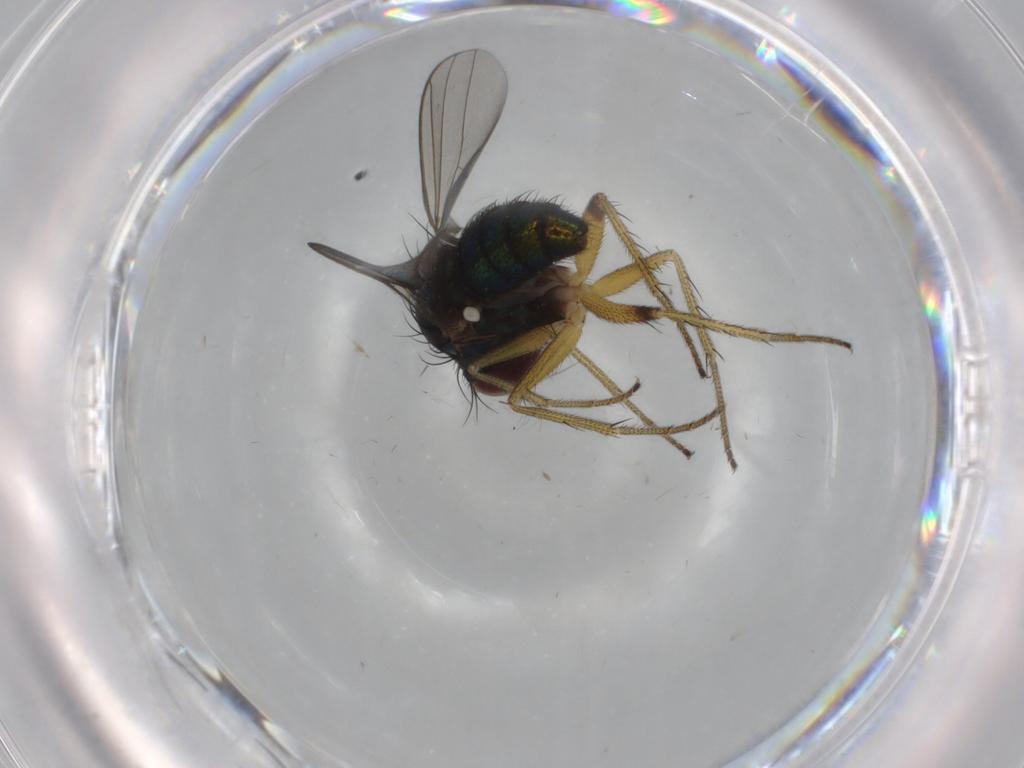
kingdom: Animalia
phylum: Arthropoda
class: Insecta
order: Diptera
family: Dolichopodidae
